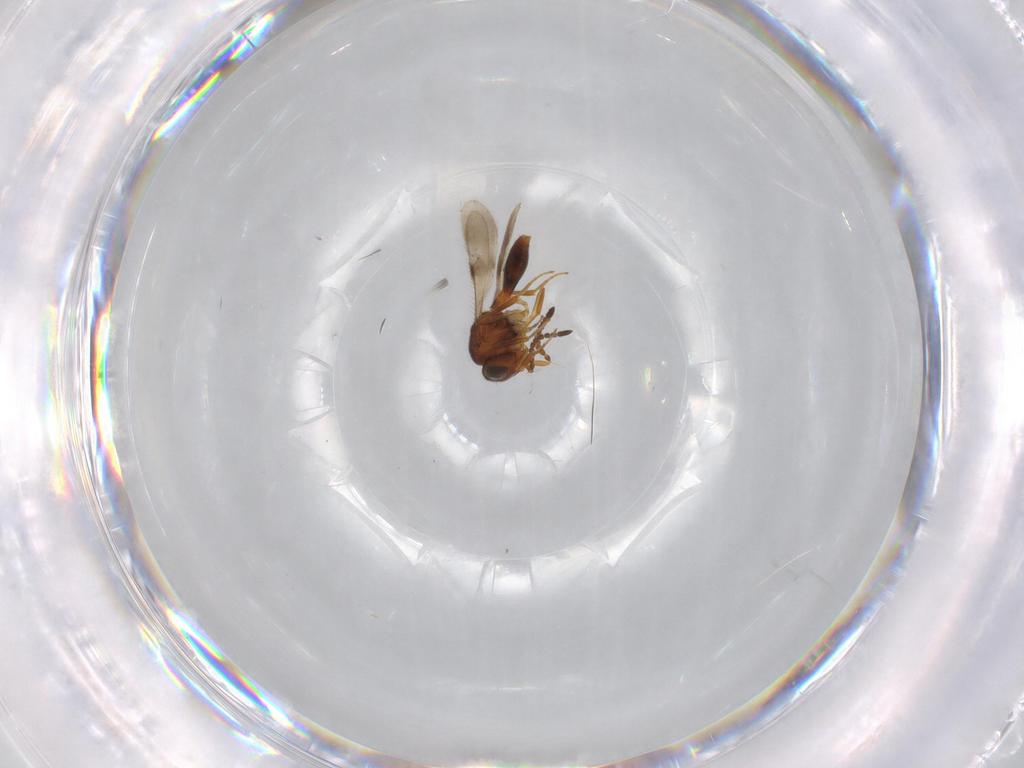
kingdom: Animalia
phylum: Arthropoda
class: Insecta
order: Hymenoptera
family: Scelionidae
